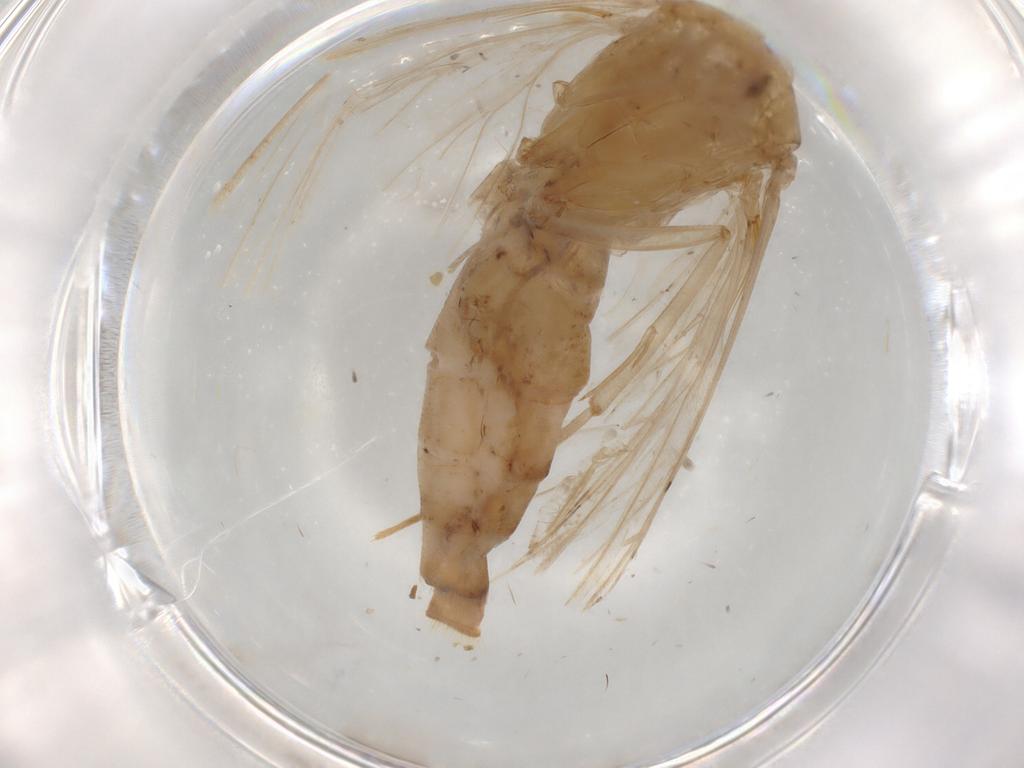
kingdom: Animalia
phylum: Arthropoda
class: Insecta
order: Lepidoptera
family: Crambidae
